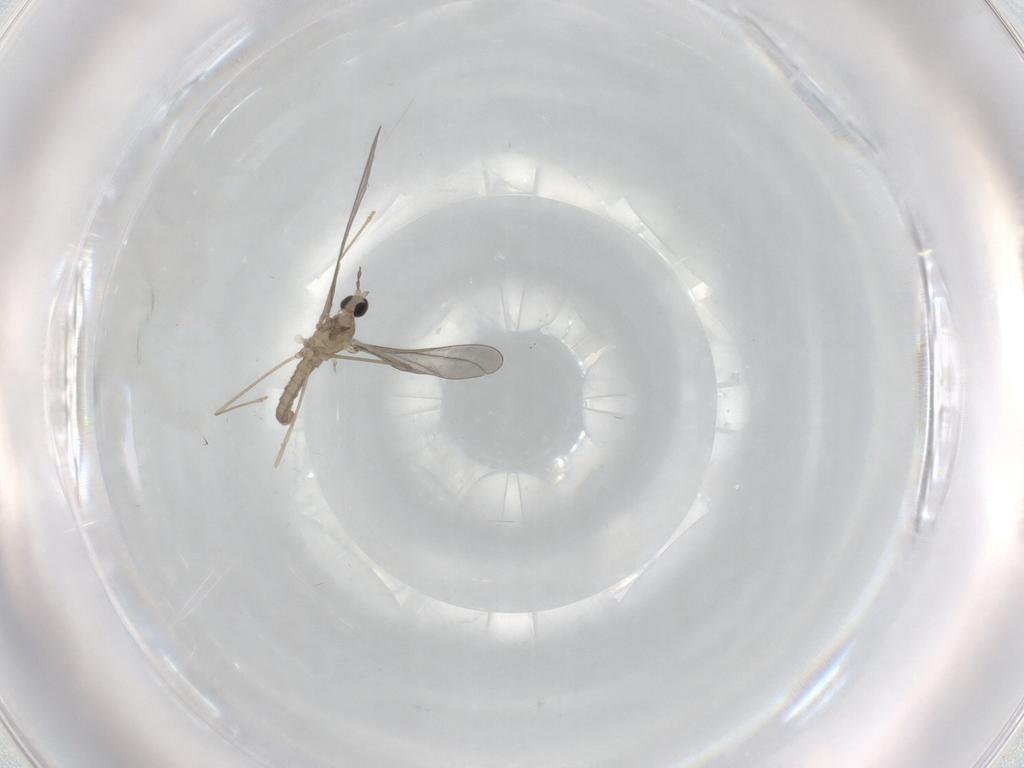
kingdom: Animalia
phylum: Arthropoda
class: Insecta
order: Diptera
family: Cecidomyiidae
